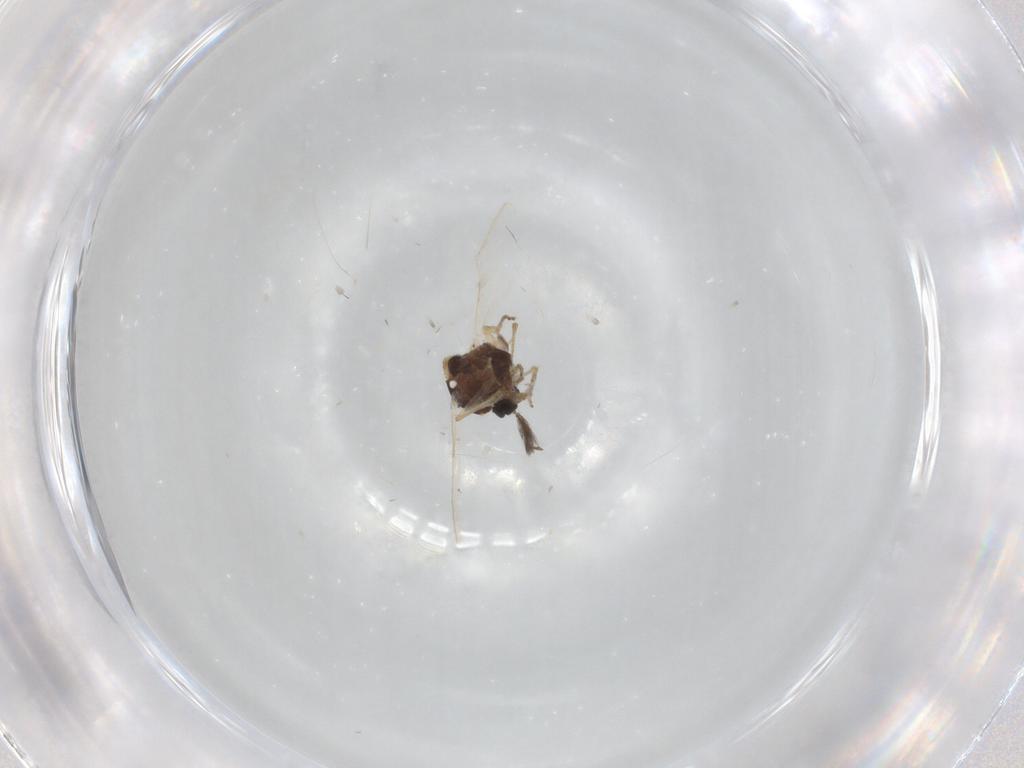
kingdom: Animalia
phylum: Arthropoda
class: Insecta
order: Diptera
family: Ceratopogonidae
